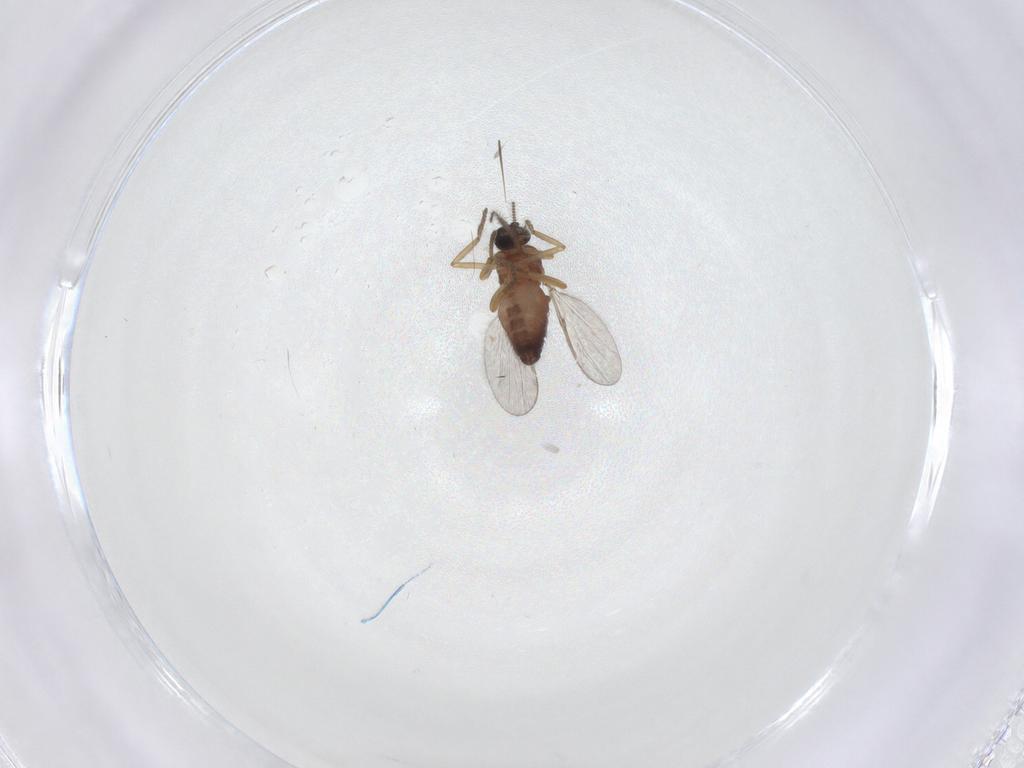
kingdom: Animalia
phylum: Arthropoda
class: Insecta
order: Diptera
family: Ceratopogonidae
